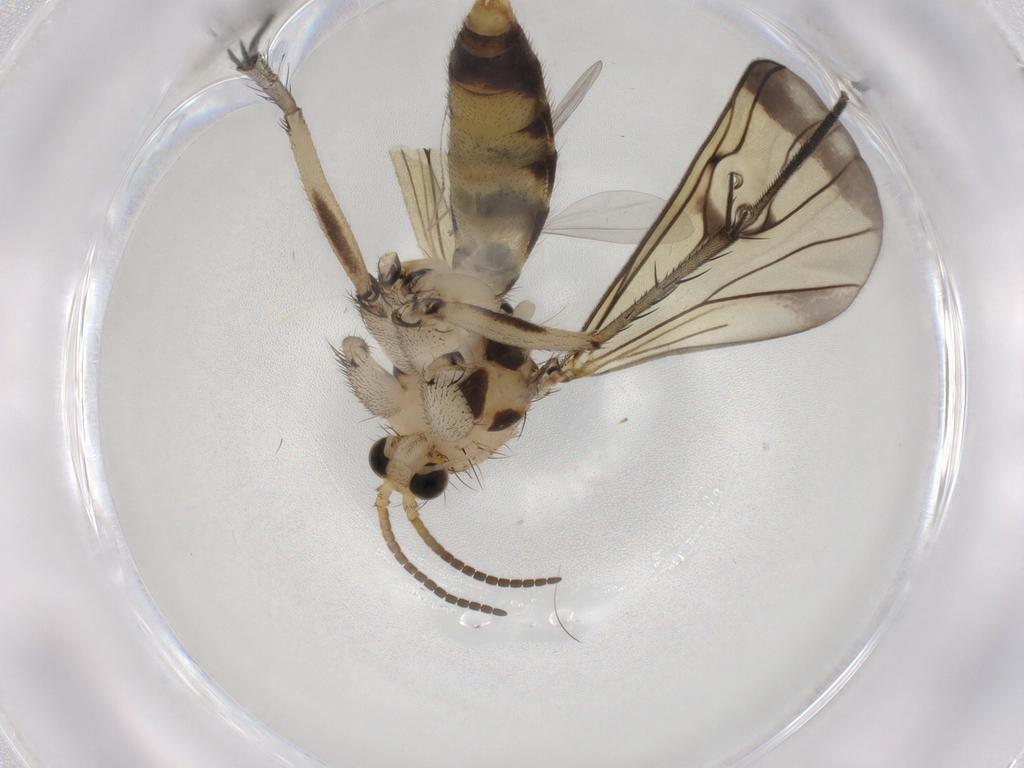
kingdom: Animalia
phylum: Arthropoda
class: Insecta
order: Diptera
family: Mycetophilidae
